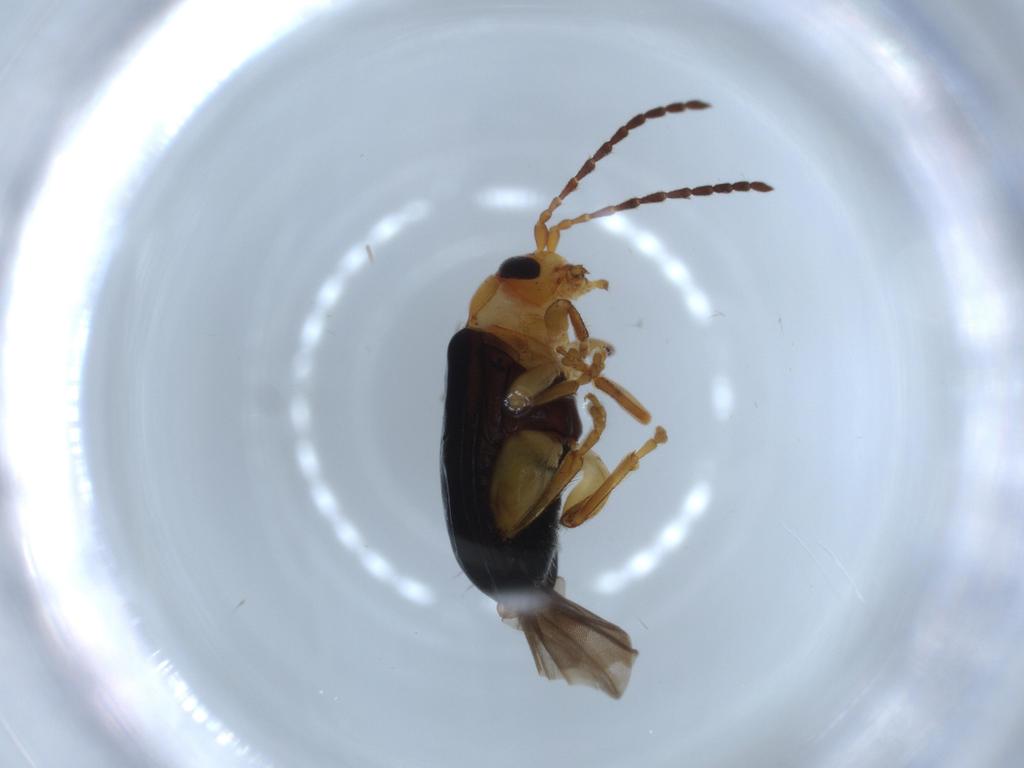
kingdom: Animalia
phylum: Arthropoda
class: Insecta
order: Coleoptera
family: Chrysomelidae
